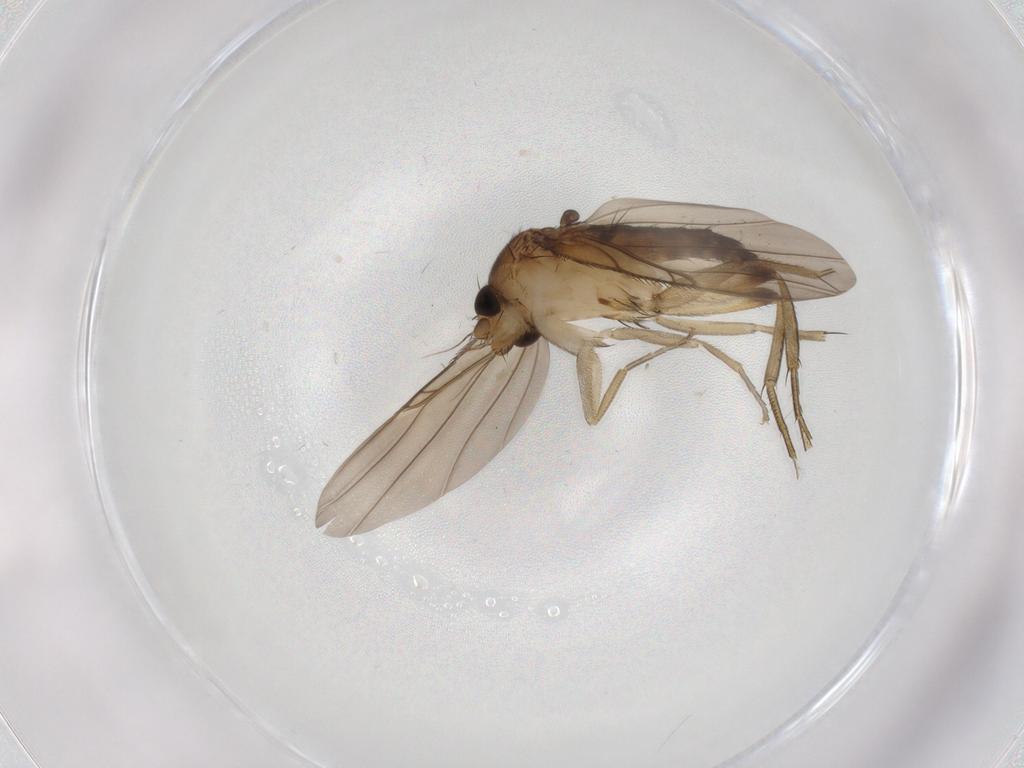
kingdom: Animalia
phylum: Arthropoda
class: Insecta
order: Diptera
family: Phoridae
